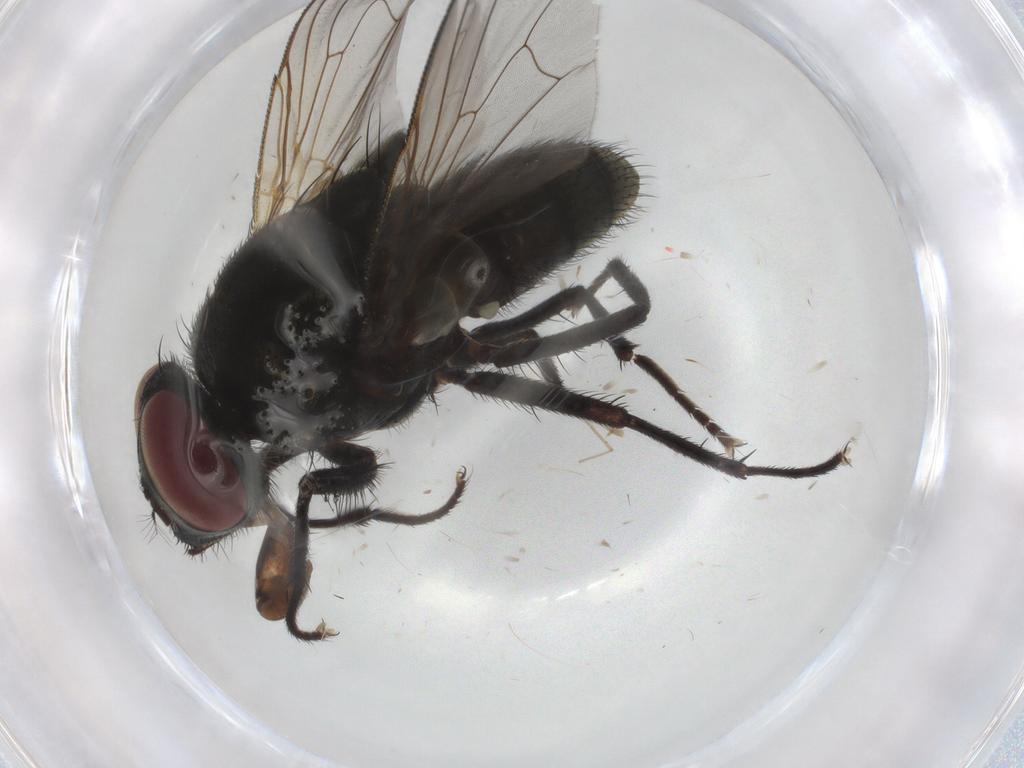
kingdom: Animalia
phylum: Arthropoda
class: Insecta
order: Diptera
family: Muscidae
